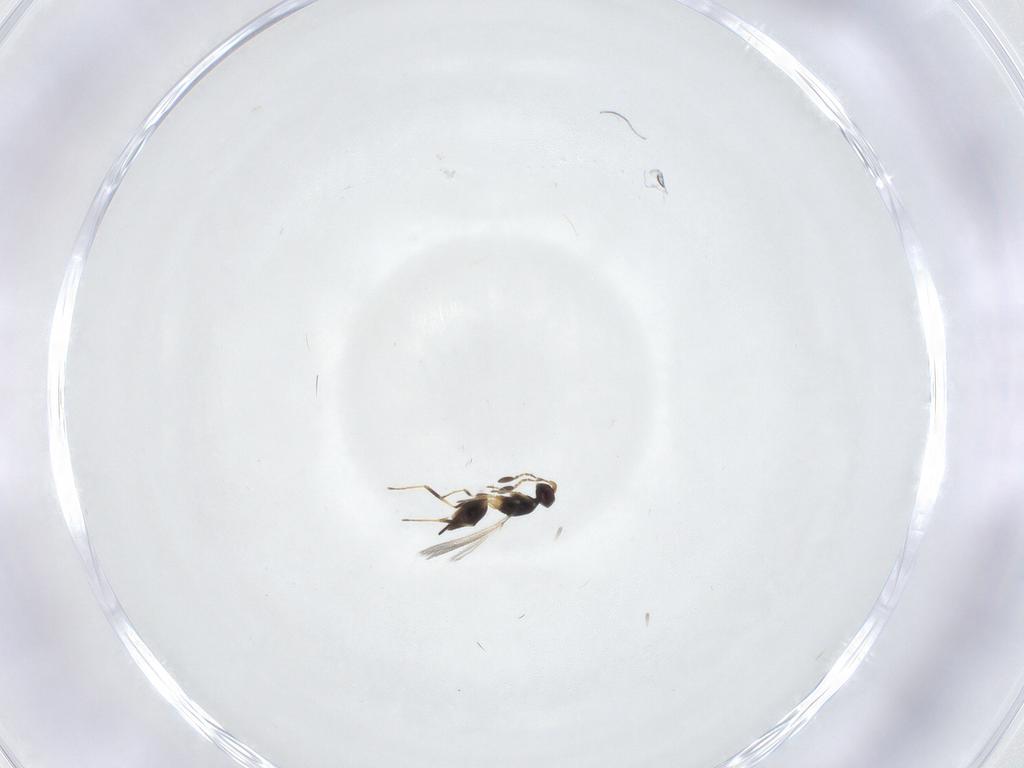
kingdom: Animalia
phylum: Arthropoda
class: Insecta
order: Hymenoptera
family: Mymaridae
